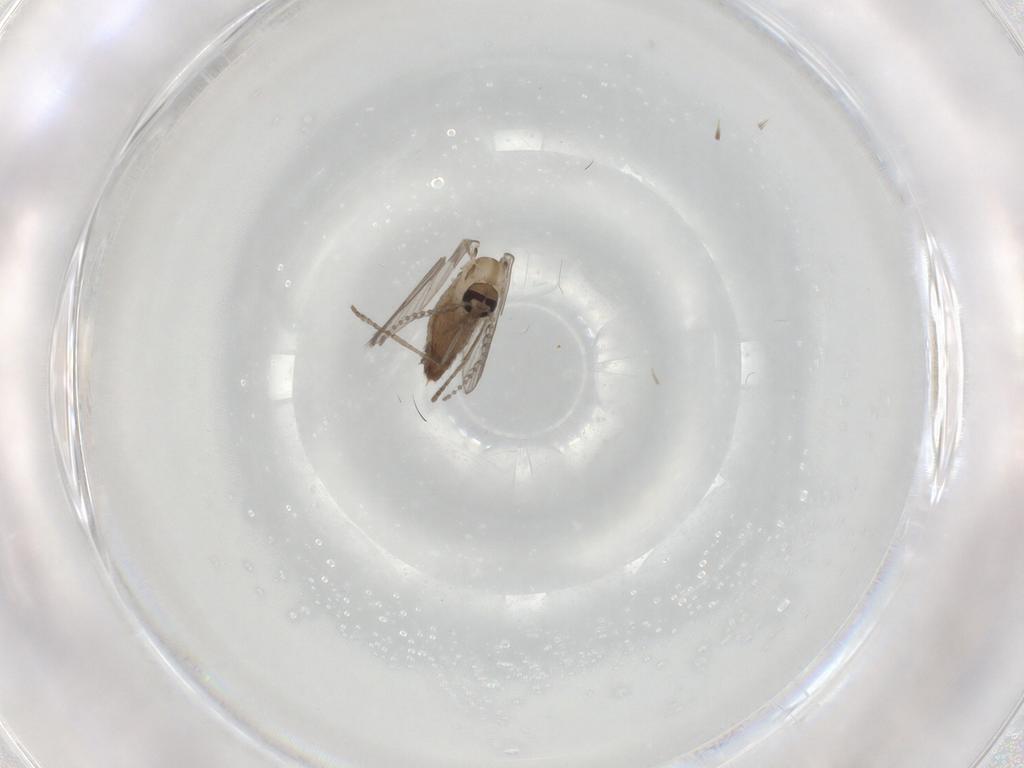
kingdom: Animalia
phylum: Arthropoda
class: Insecta
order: Diptera
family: Psychodidae
